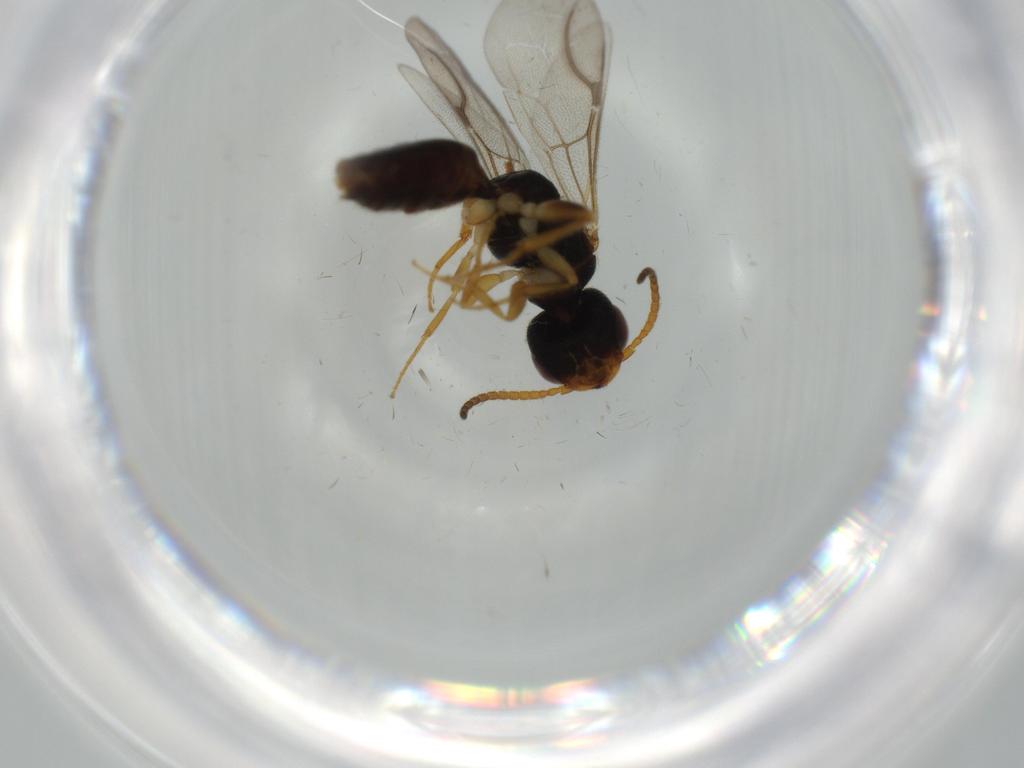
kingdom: Animalia
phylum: Arthropoda
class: Insecta
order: Hymenoptera
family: Bethylidae
